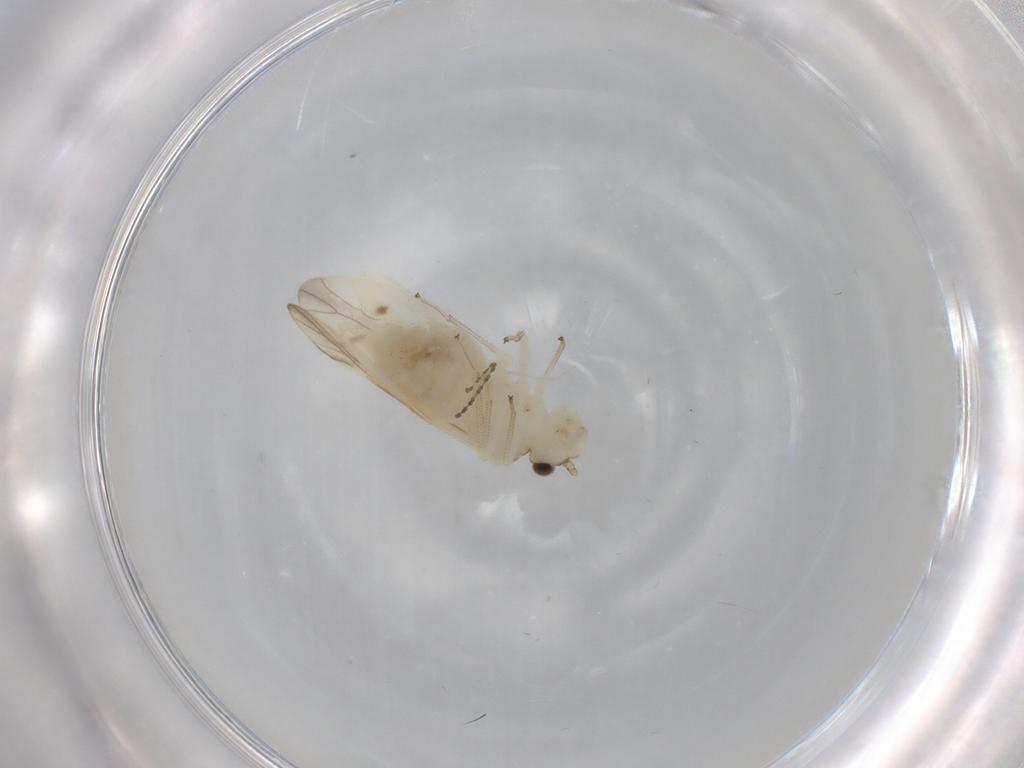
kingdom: Animalia
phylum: Arthropoda
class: Insecta
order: Psocodea
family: Caeciliusidae
